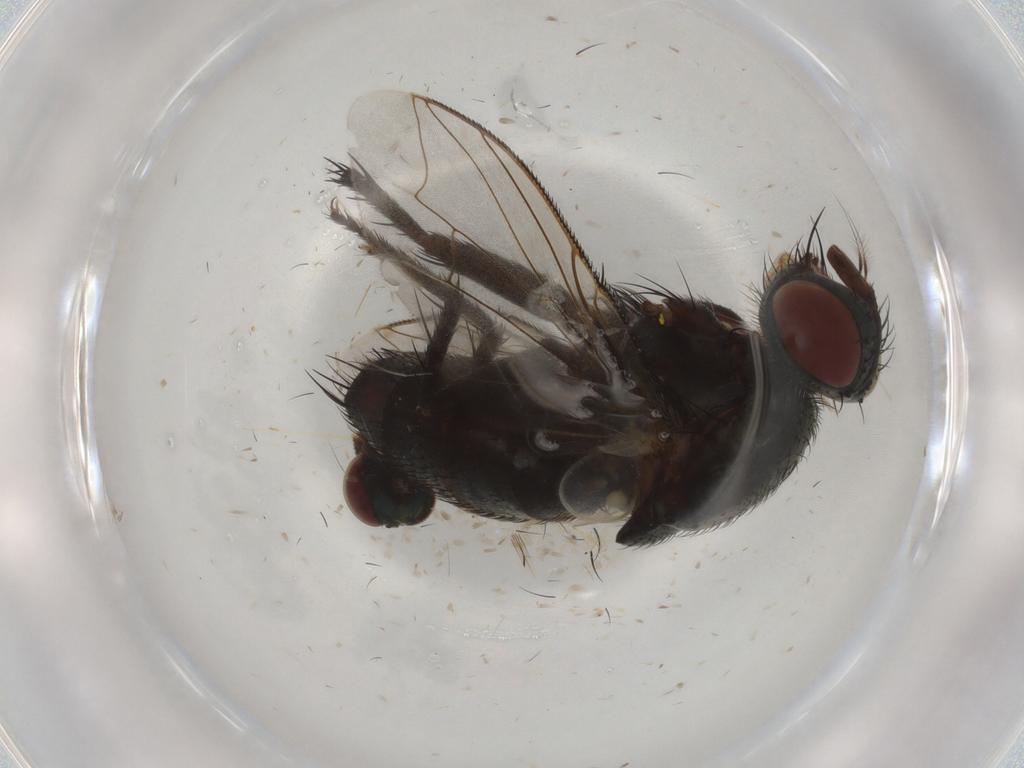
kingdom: Animalia
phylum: Arthropoda
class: Insecta
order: Diptera
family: Sarcophagidae
